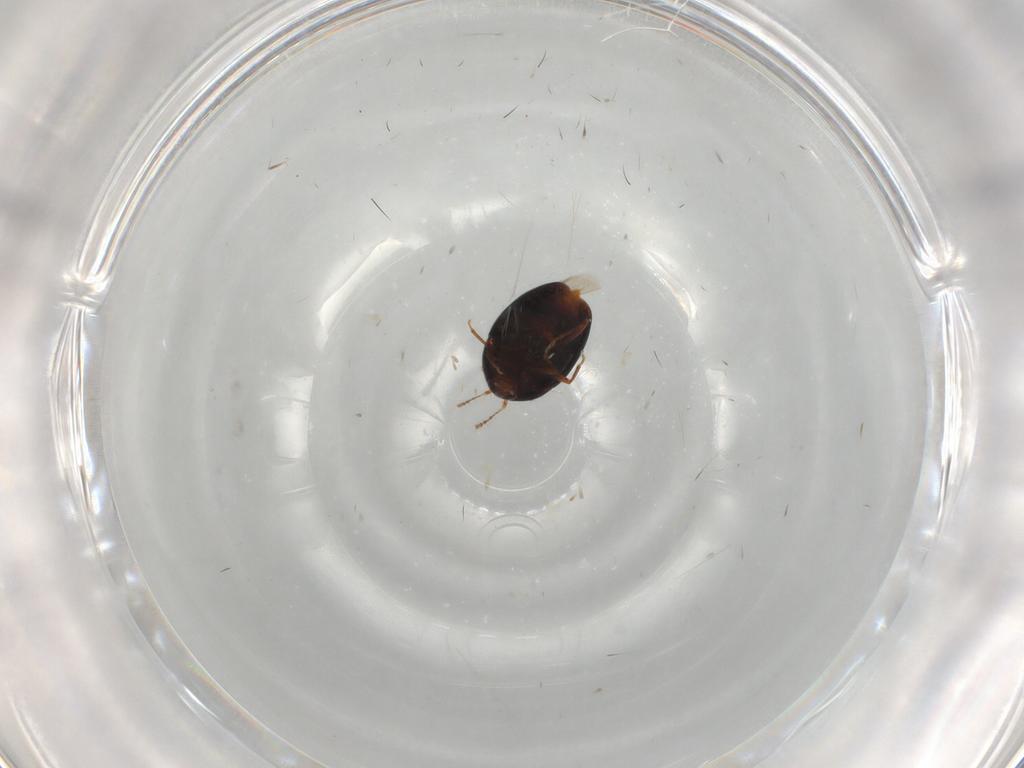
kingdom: Animalia
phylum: Arthropoda
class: Insecta
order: Coleoptera
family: Staphylinidae
